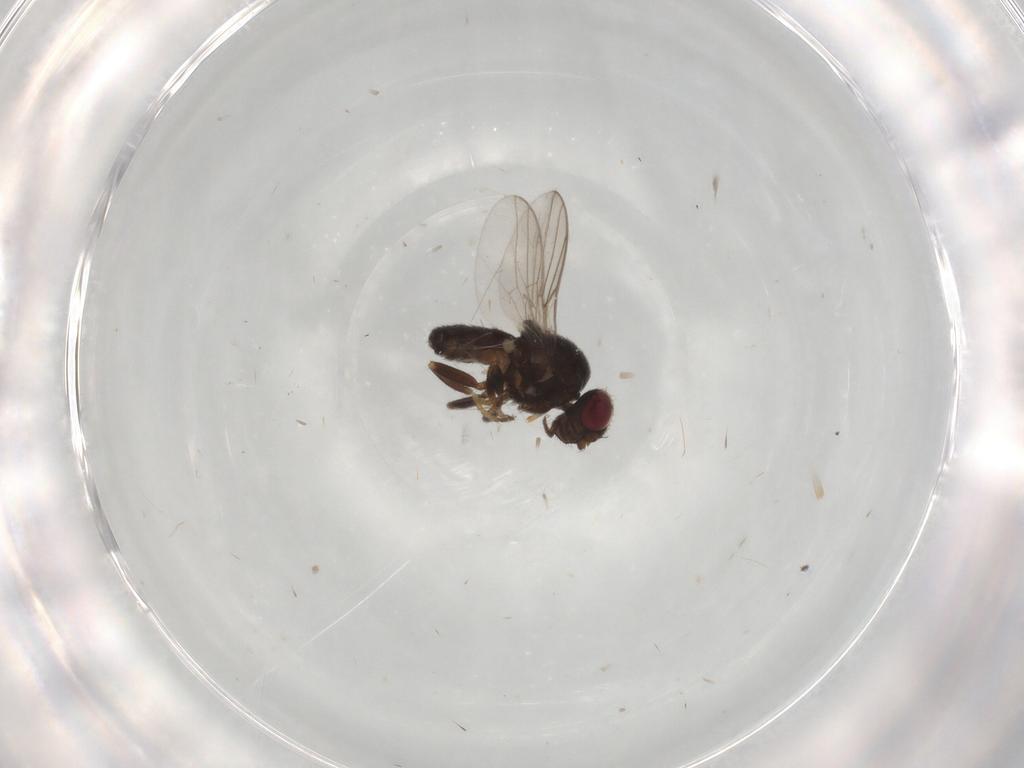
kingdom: Animalia
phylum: Arthropoda
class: Insecta
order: Diptera
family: Chloropidae
